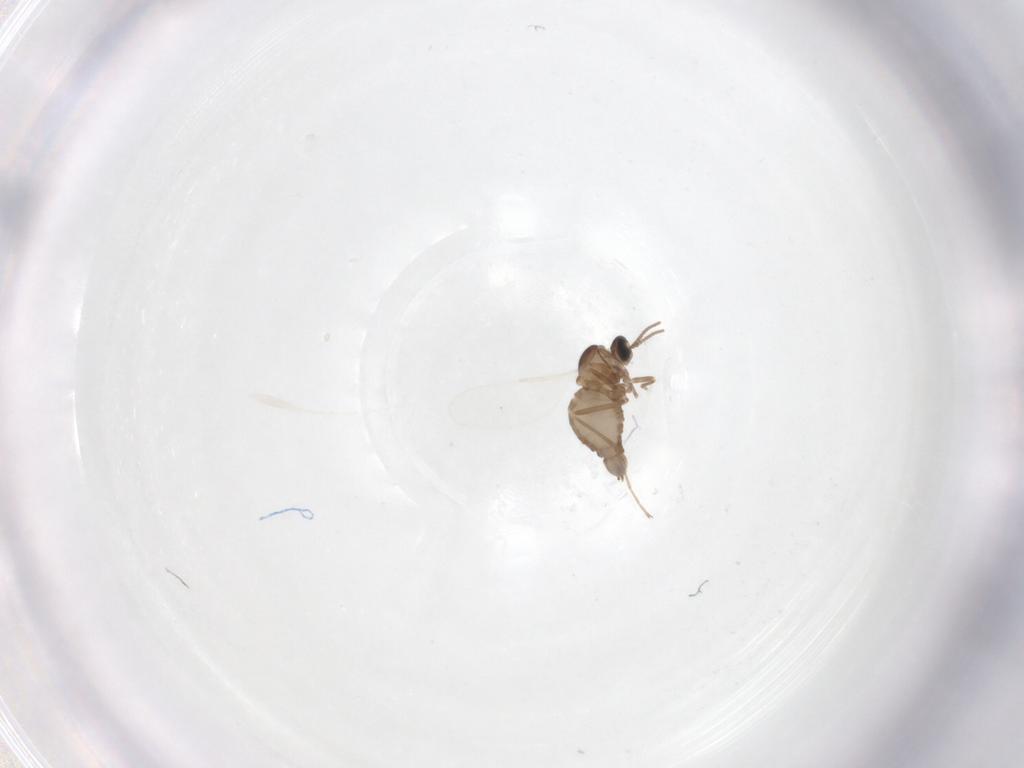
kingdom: Animalia
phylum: Arthropoda
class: Insecta
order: Diptera
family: Cecidomyiidae
